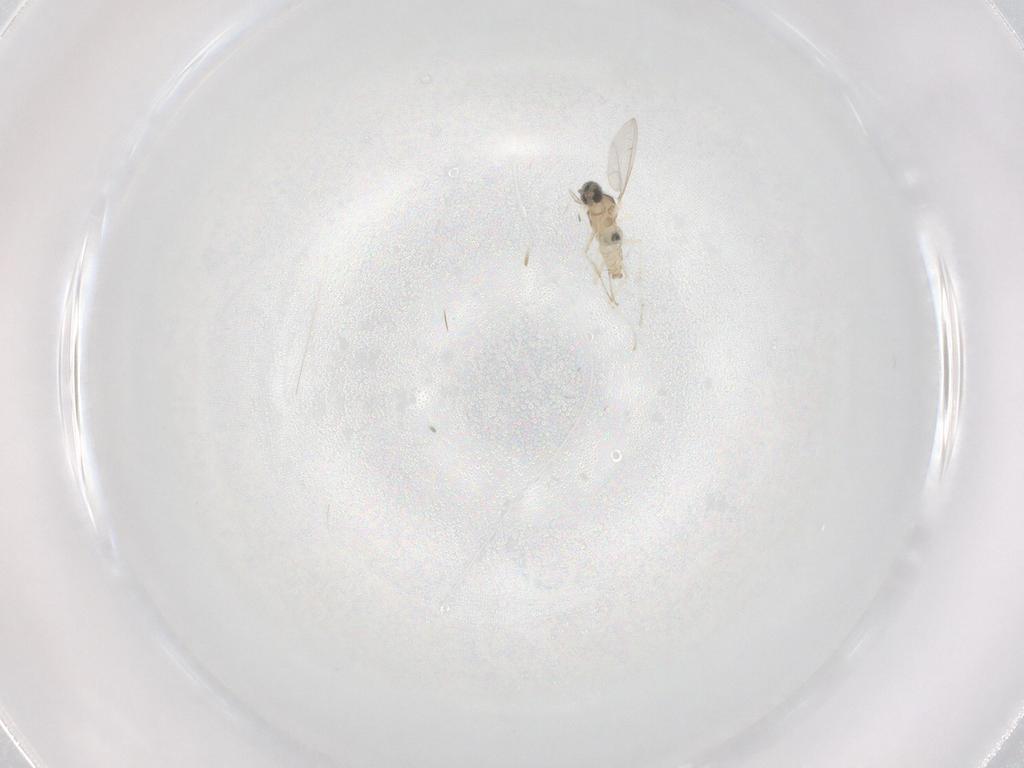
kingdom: Animalia
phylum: Arthropoda
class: Insecta
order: Diptera
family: Cecidomyiidae
